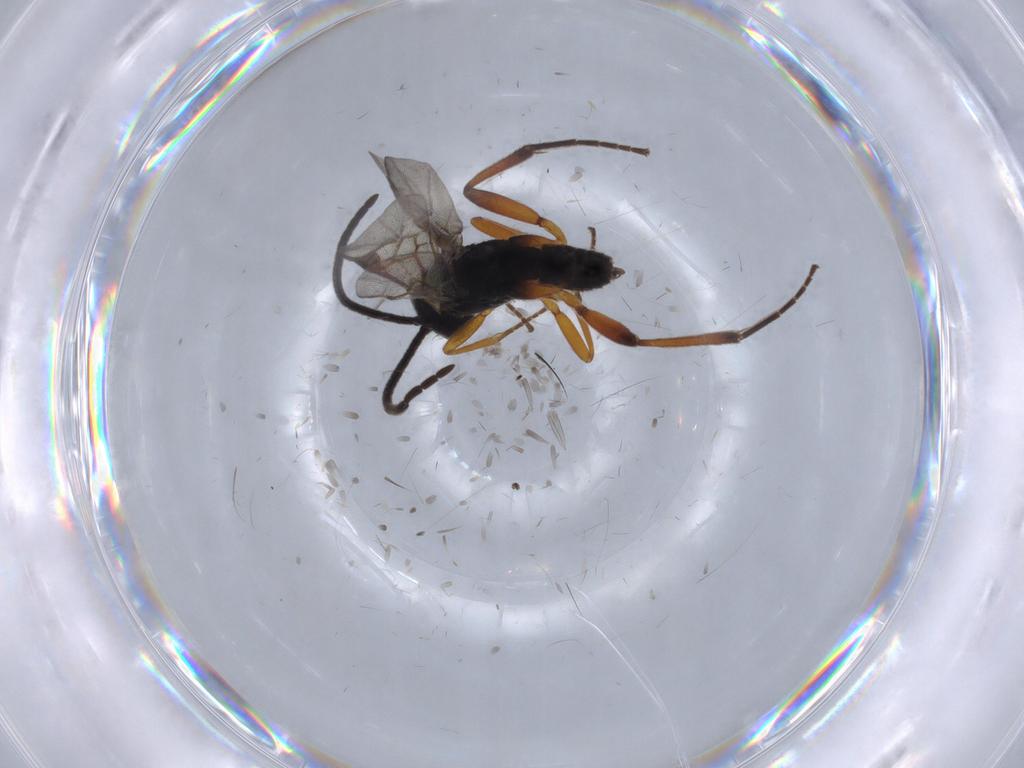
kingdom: Animalia
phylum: Arthropoda
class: Insecta
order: Hymenoptera
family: Braconidae
